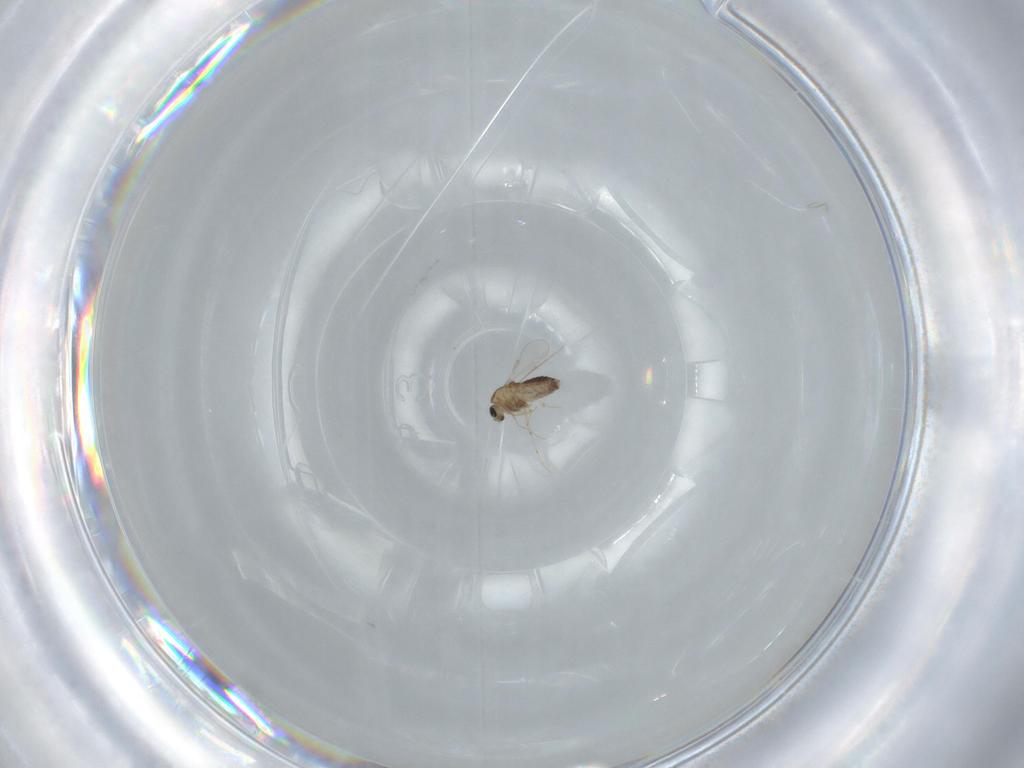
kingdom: Animalia
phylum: Arthropoda
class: Insecta
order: Diptera
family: Chironomidae
